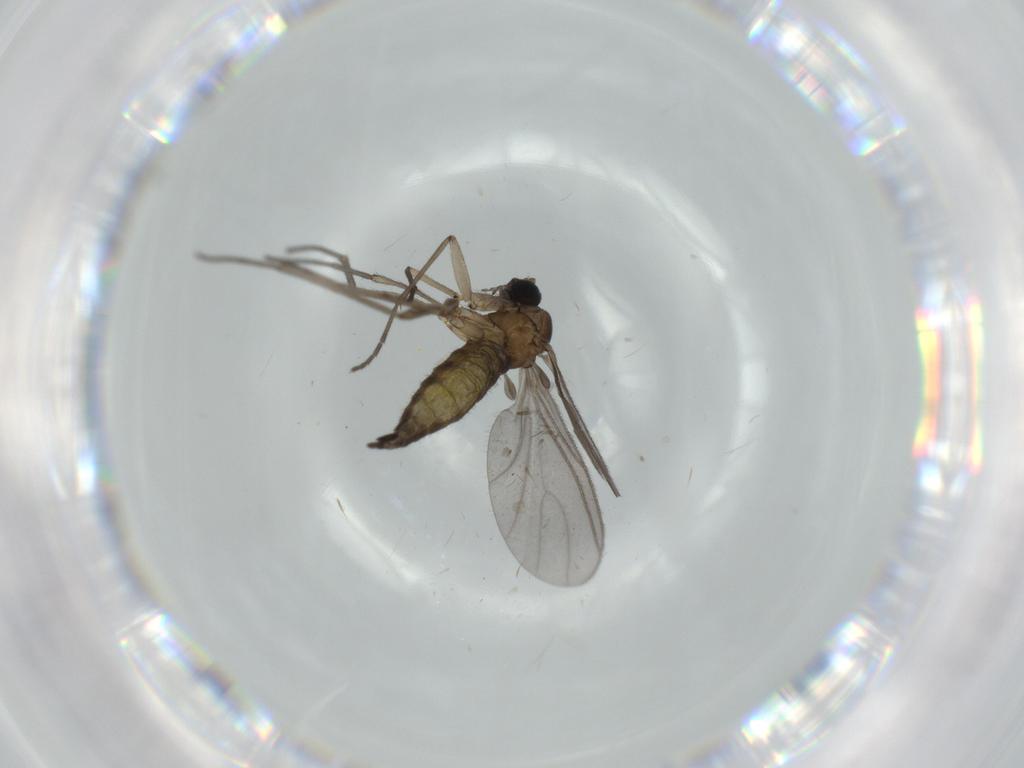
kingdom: Animalia
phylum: Arthropoda
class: Insecta
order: Diptera
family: Sciaridae
